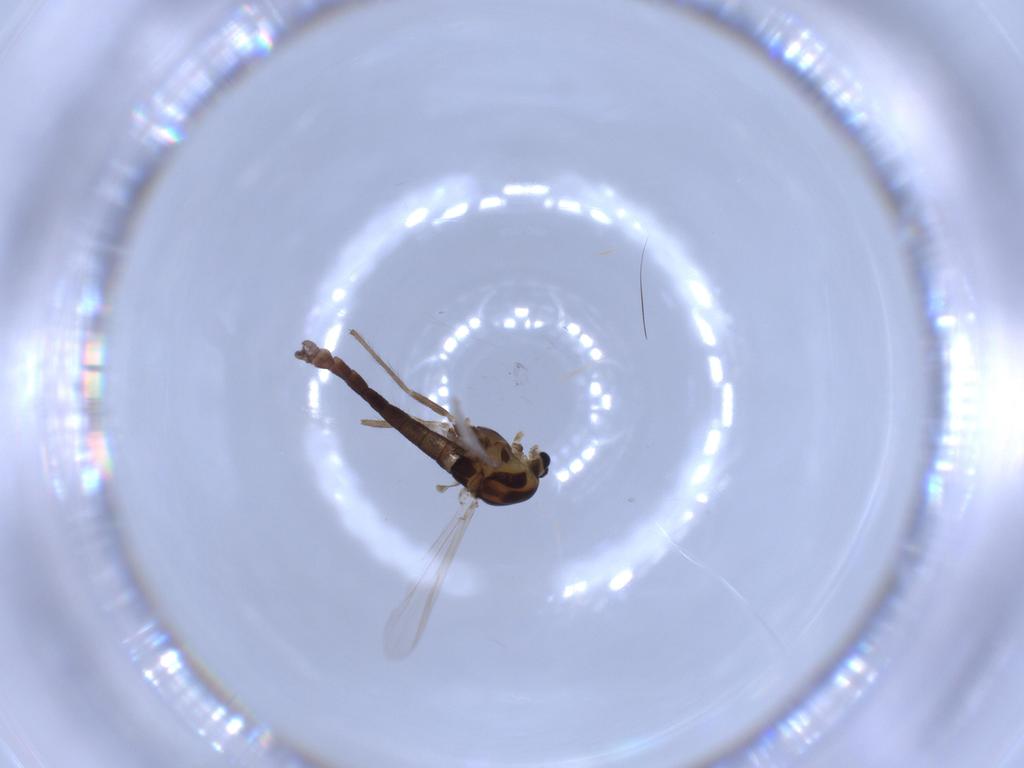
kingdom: Animalia
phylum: Arthropoda
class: Insecta
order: Diptera
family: Chironomidae
